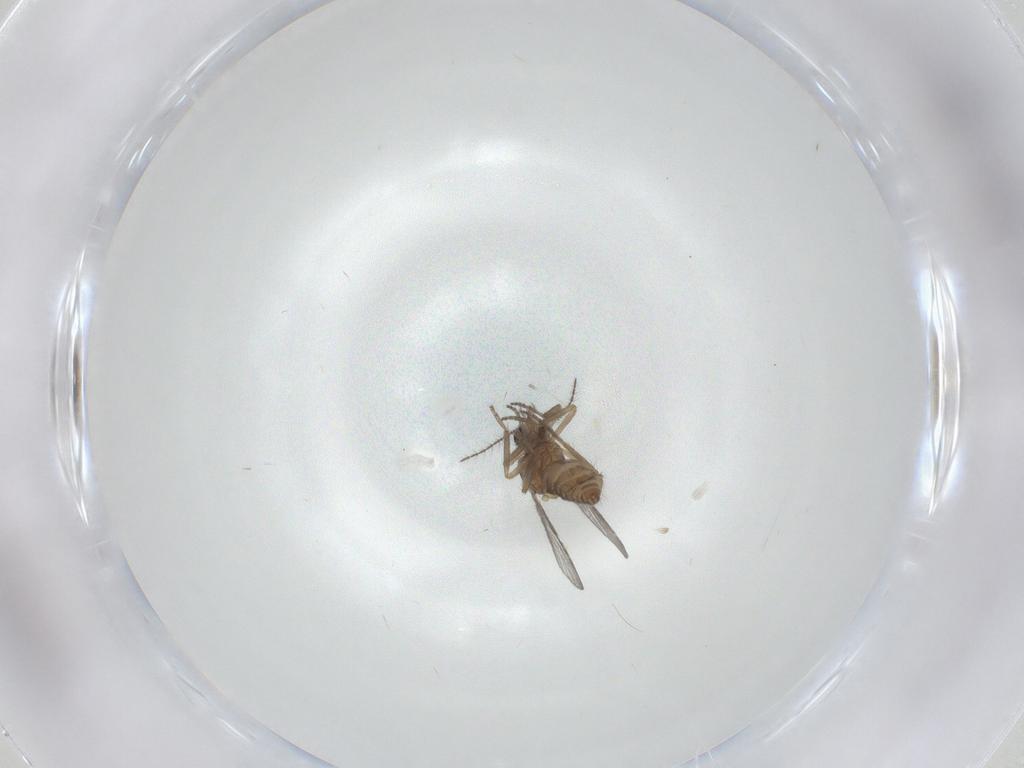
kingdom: Animalia
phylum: Arthropoda
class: Insecta
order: Diptera
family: Ceratopogonidae
